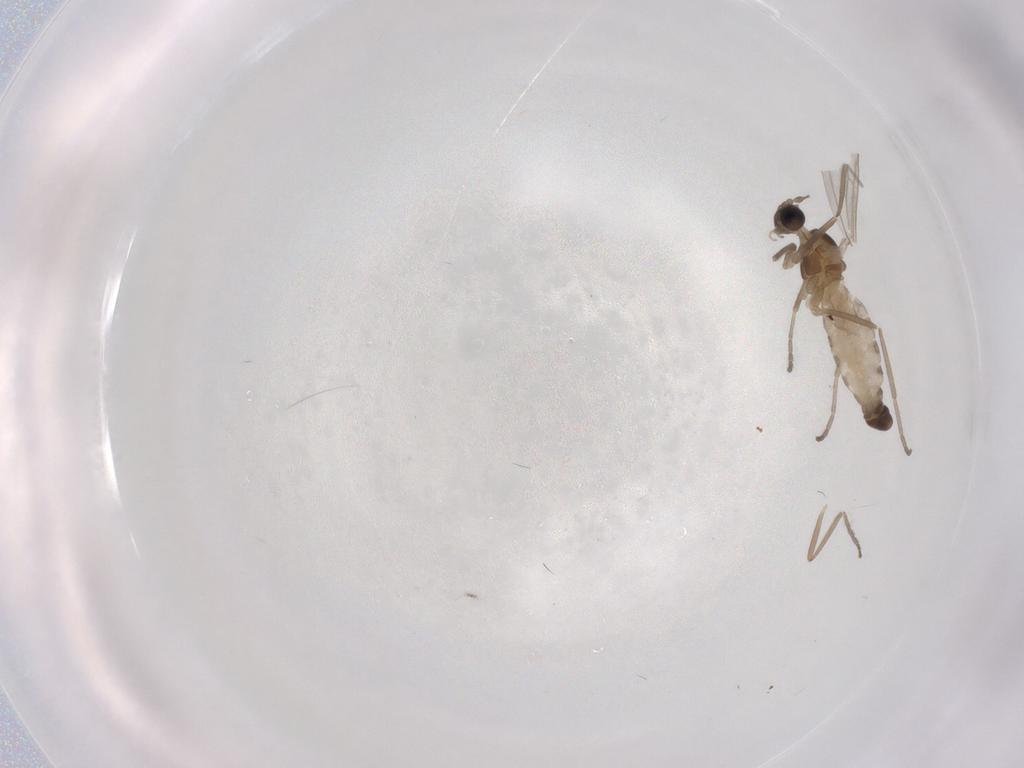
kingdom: Animalia
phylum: Arthropoda
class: Insecta
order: Diptera
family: Cecidomyiidae
